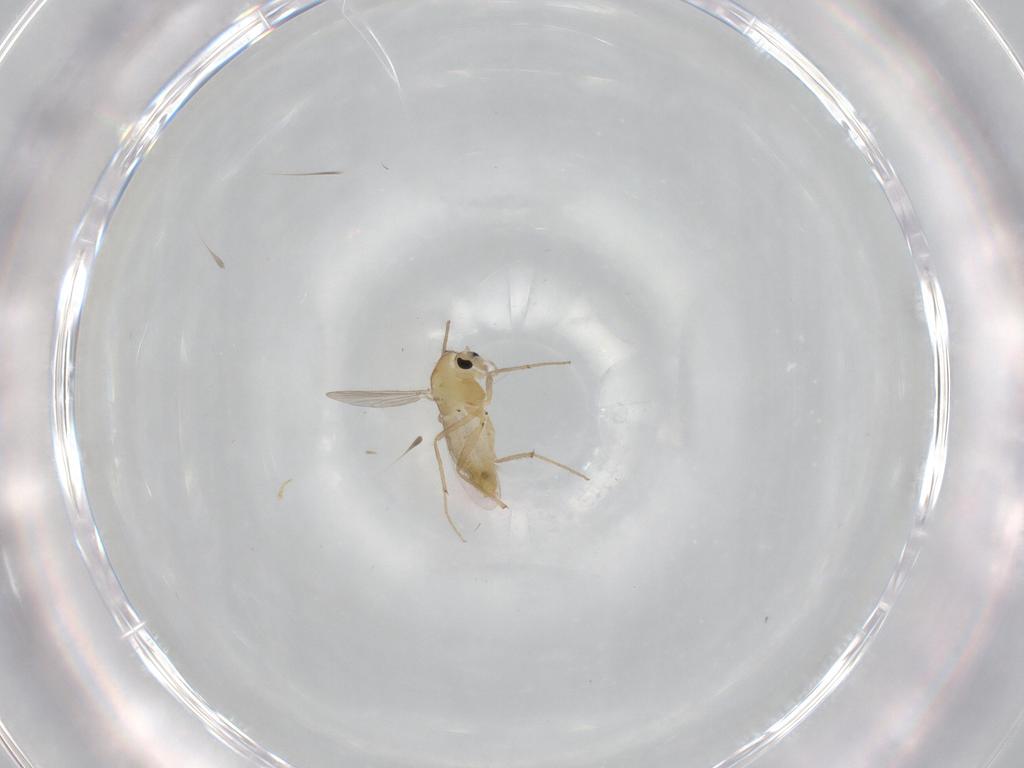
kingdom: Animalia
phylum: Arthropoda
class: Insecta
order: Diptera
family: Chironomidae
